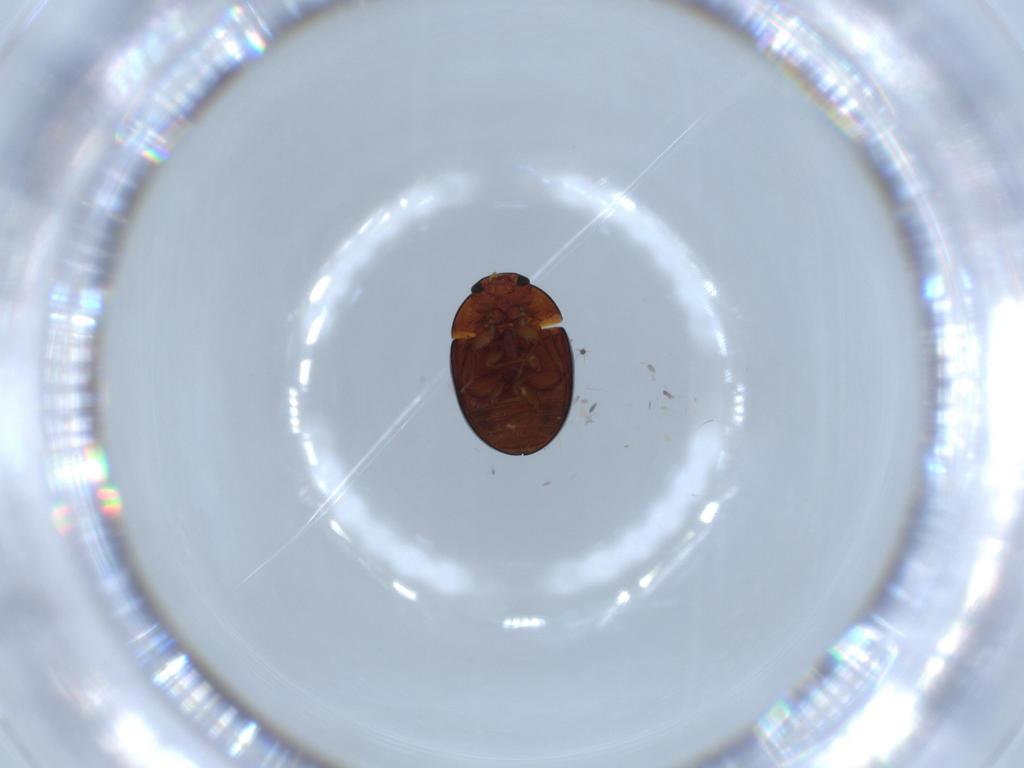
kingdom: Animalia
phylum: Arthropoda
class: Insecta
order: Coleoptera
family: Phalacridae
